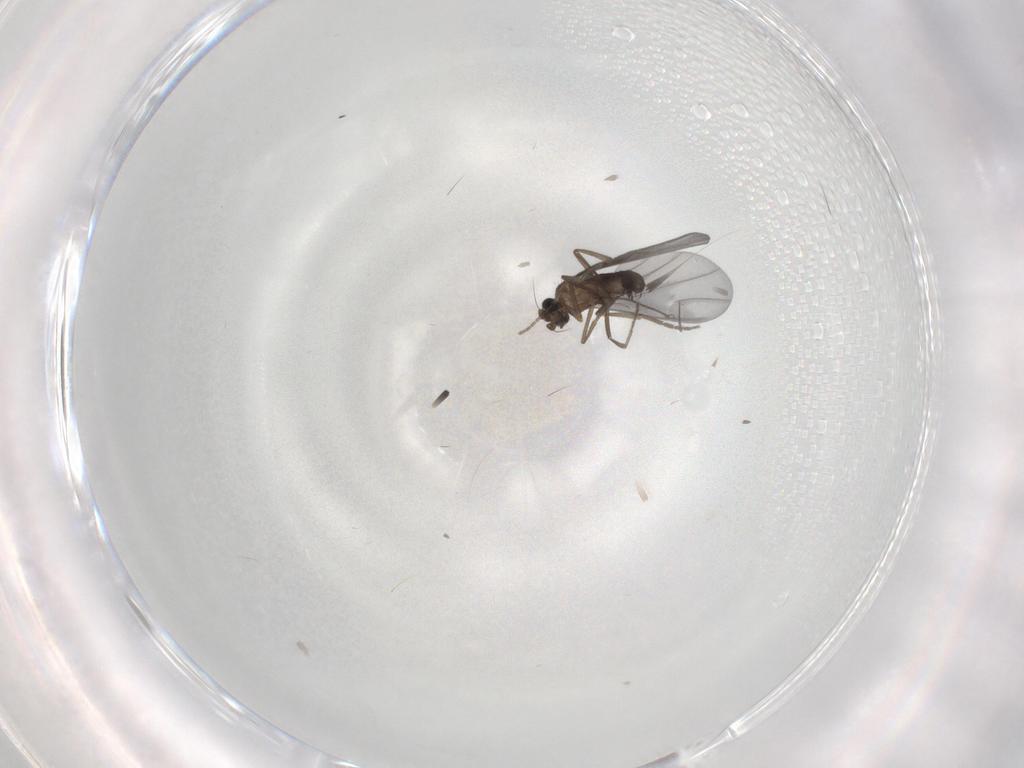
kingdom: Animalia
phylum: Arthropoda
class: Insecta
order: Diptera
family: Phoridae
